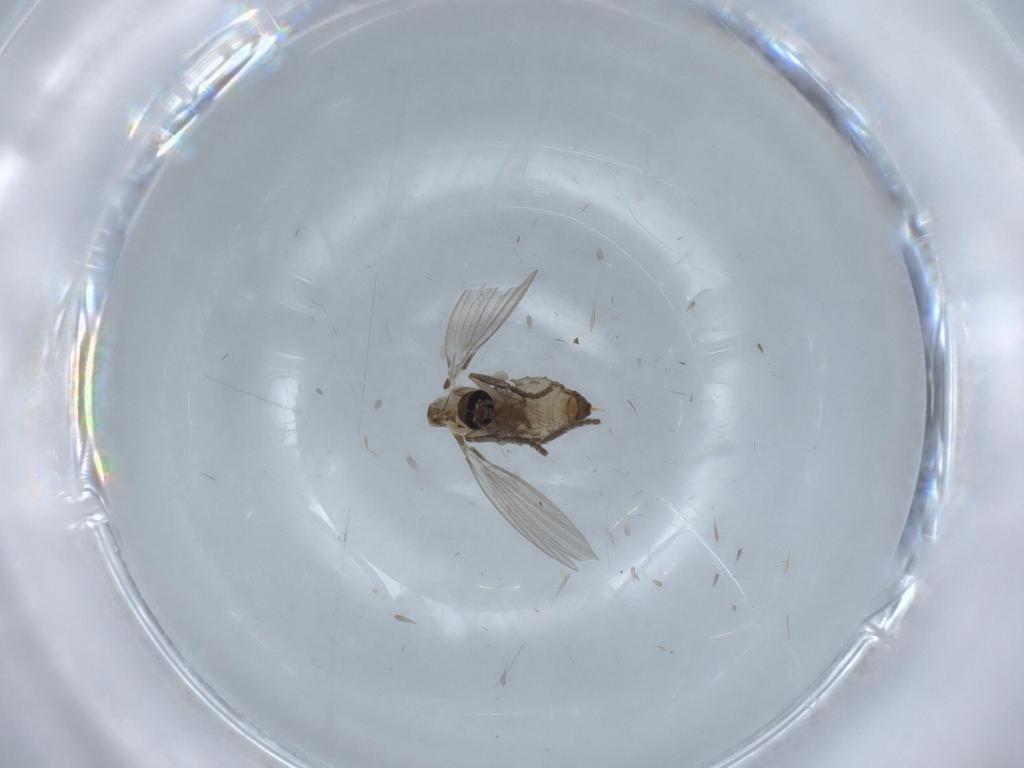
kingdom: Animalia
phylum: Arthropoda
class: Insecta
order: Diptera
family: Drosophilidae
